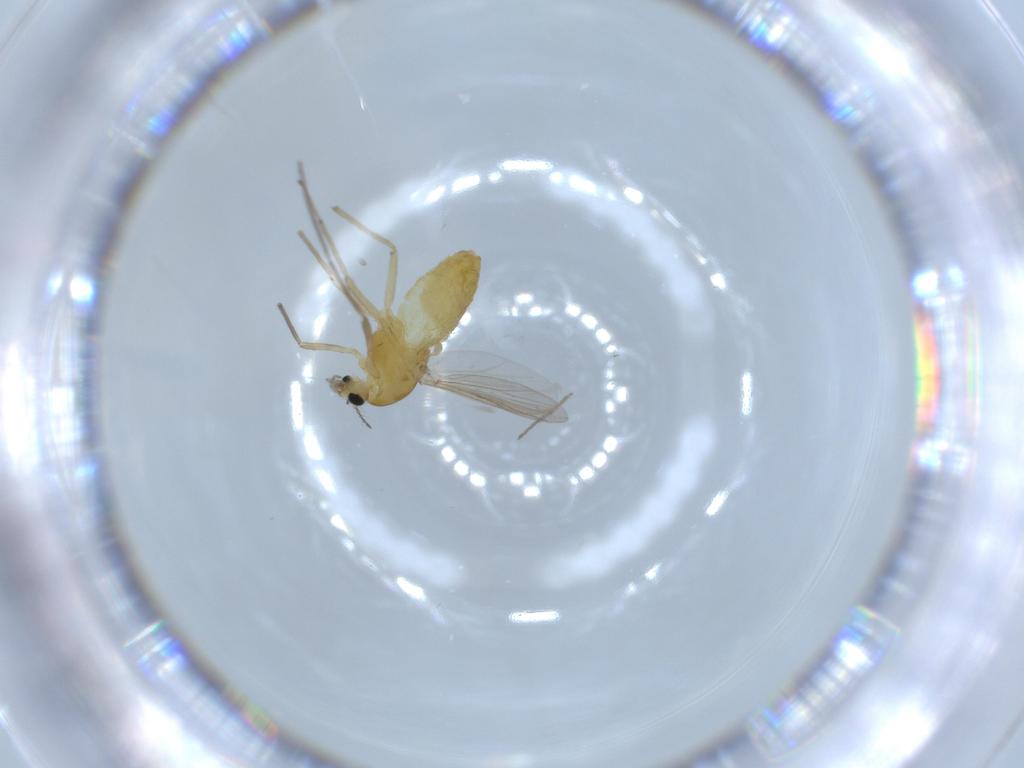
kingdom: Animalia
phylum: Arthropoda
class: Insecta
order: Diptera
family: Chironomidae
